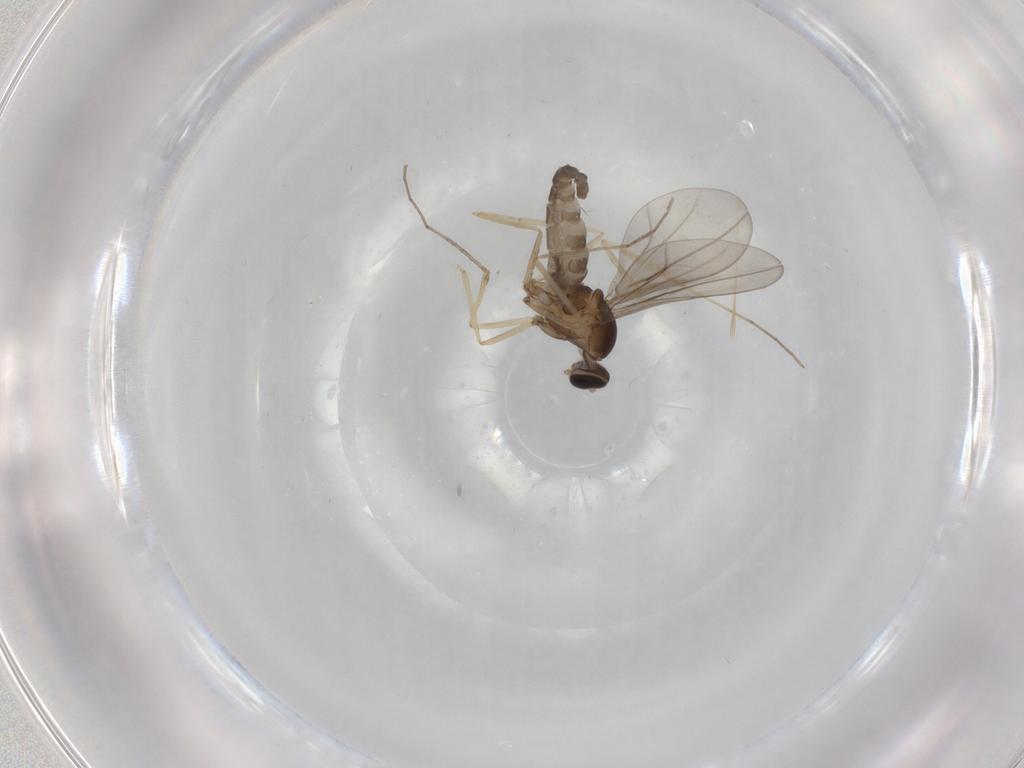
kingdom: Animalia
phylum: Arthropoda
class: Insecta
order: Diptera
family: Cecidomyiidae
